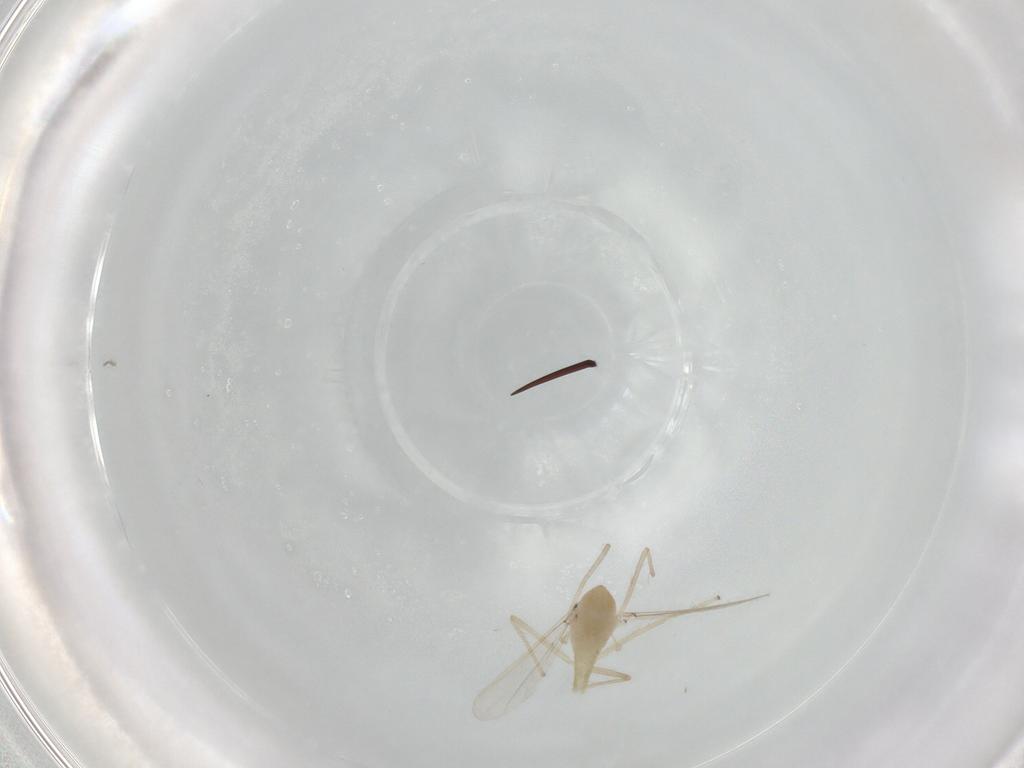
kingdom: Animalia
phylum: Arthropoda
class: Insecta
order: Diptera
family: Chironomidae
